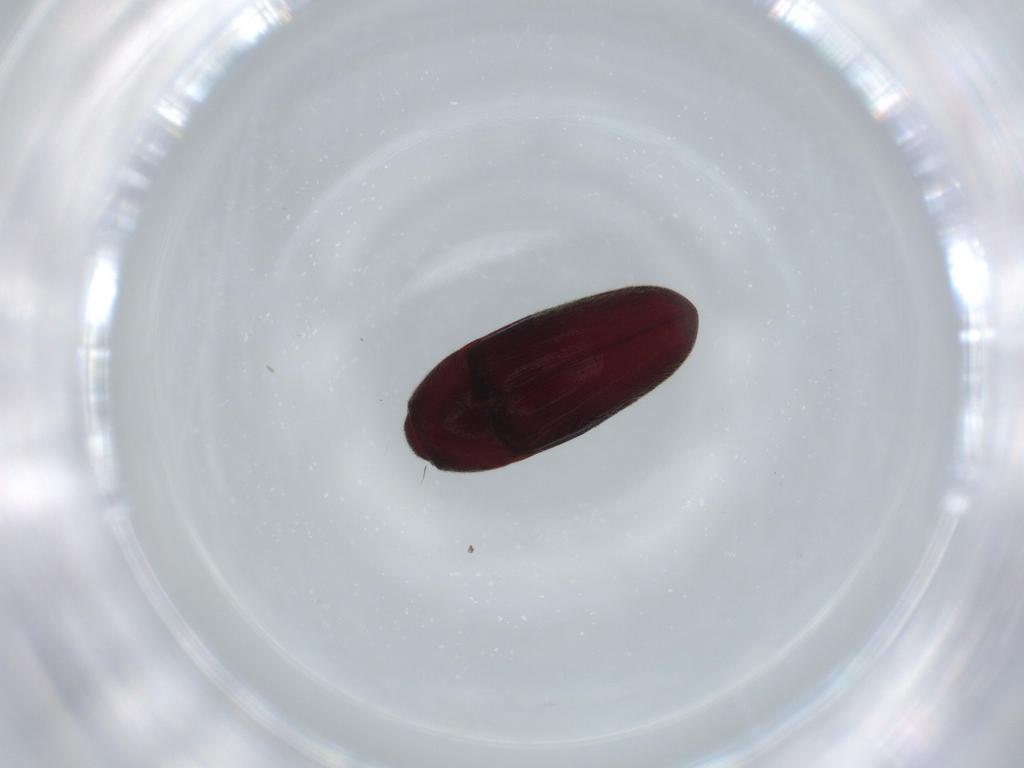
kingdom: Animalia
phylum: Arthropoda
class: Insecta
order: Coleoptera
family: Throscidae
